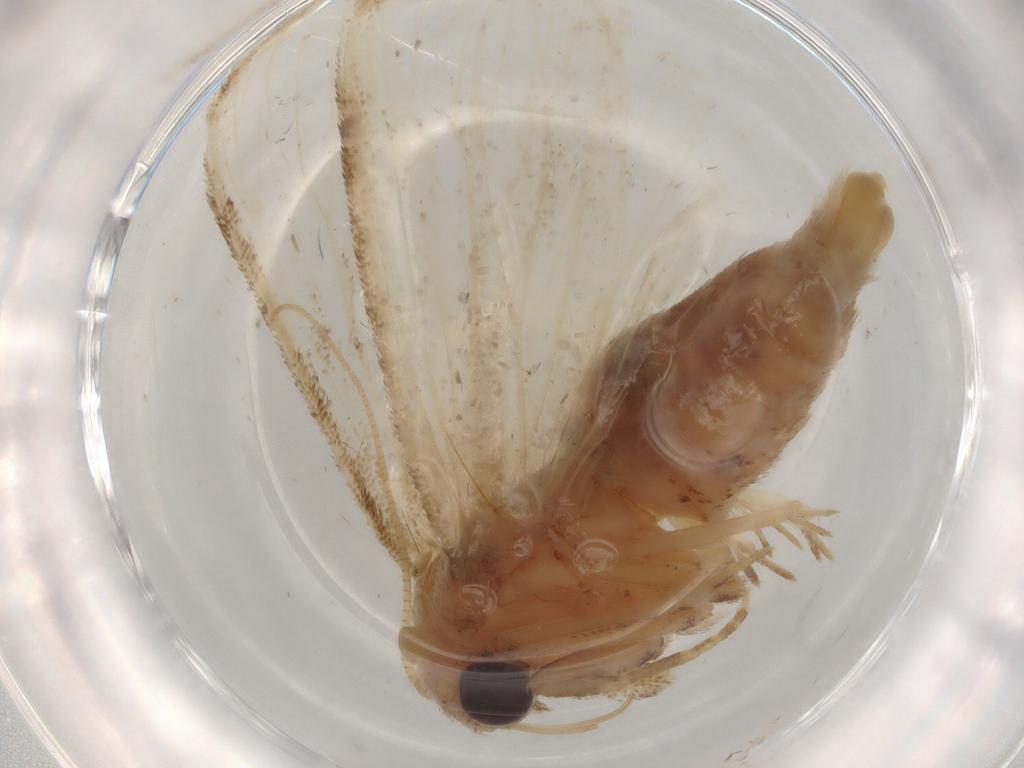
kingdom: Animalia
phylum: Arthropoda
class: Insecta
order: Lepidoptera
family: Nolidae
